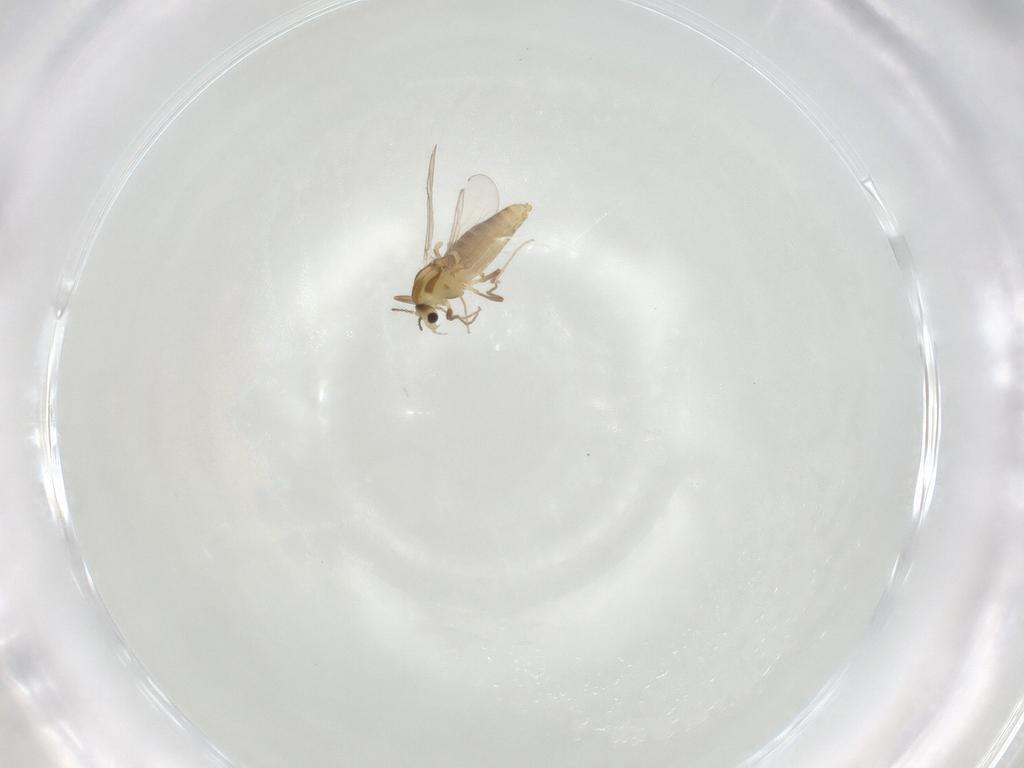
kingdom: Animalia
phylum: Arthropoda
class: Insecta
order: Diptera
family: Chironomidae
